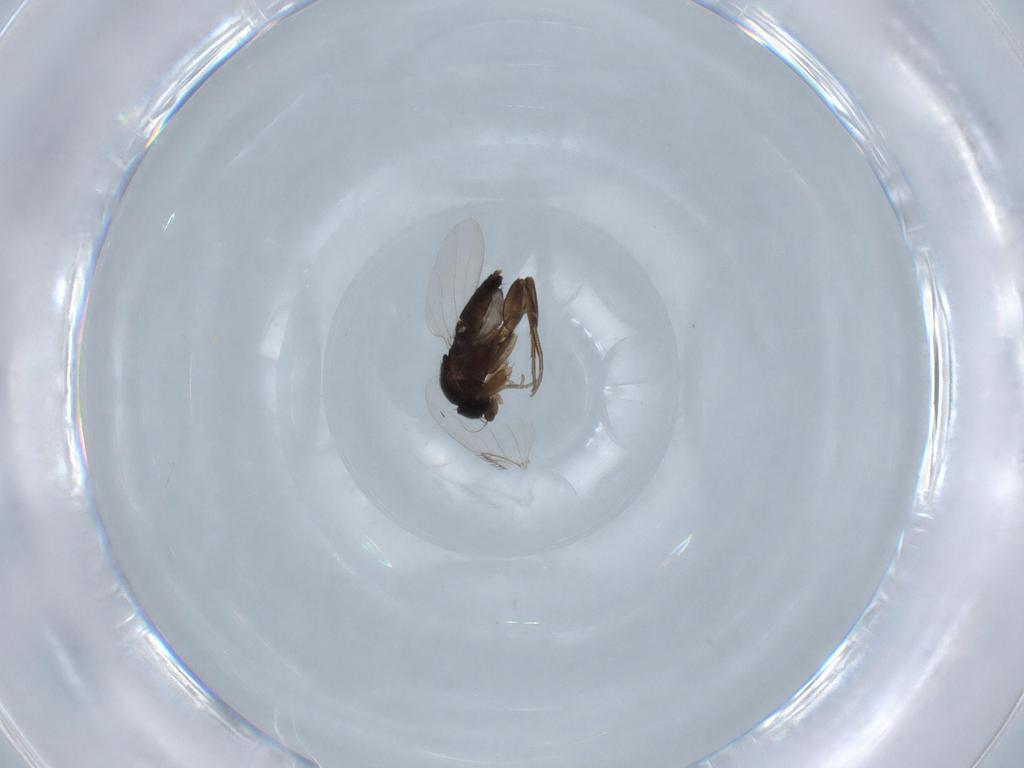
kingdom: Animalia
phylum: Arthropoda
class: Insecta
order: Diptera
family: Phoridae
